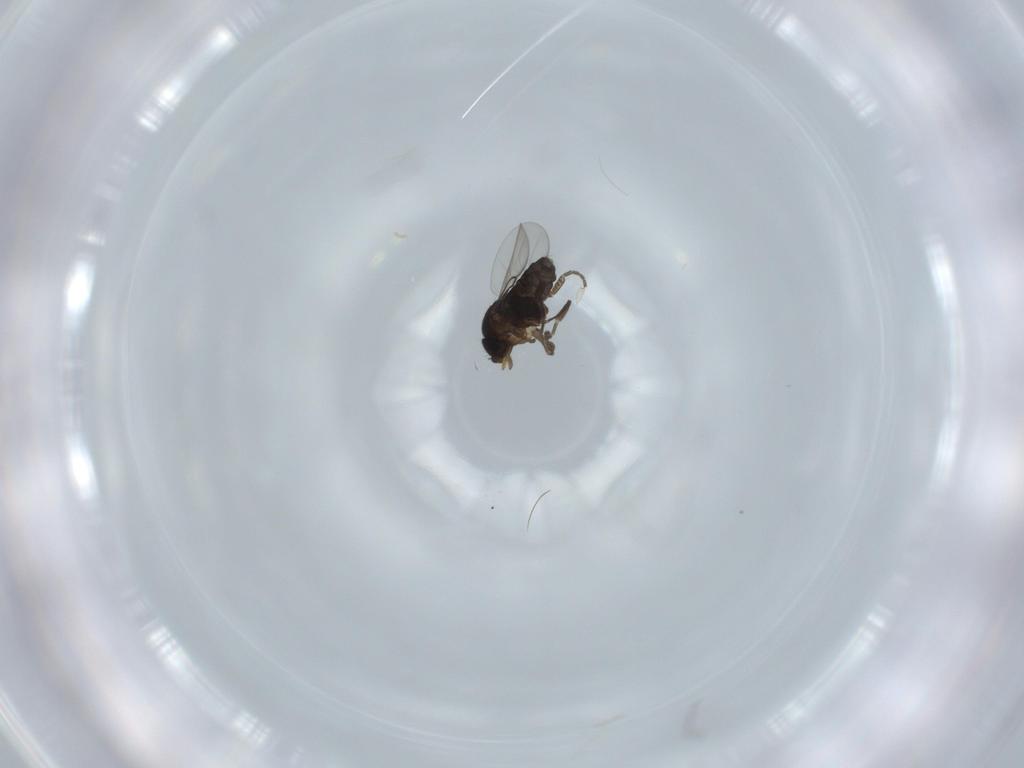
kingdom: Animalia
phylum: Arthropoda
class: Insecta
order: Diptera
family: Phoridae
